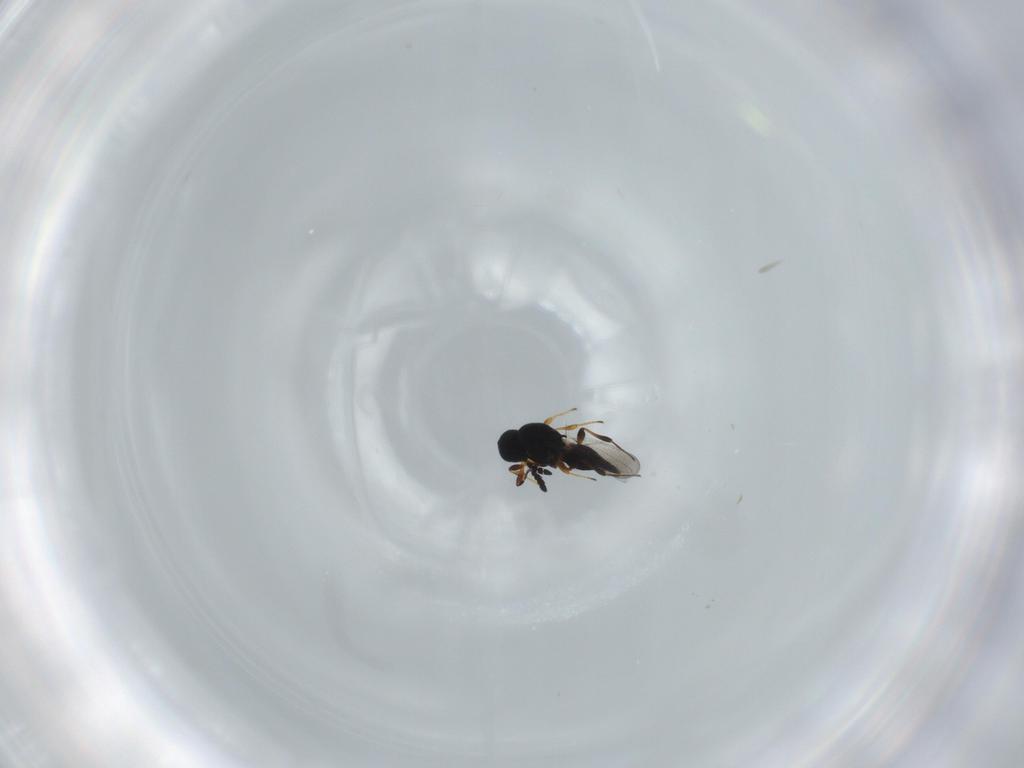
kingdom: Animalia
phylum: Arthropoda
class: Insecta
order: Hymenoptera
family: Platygastridae
